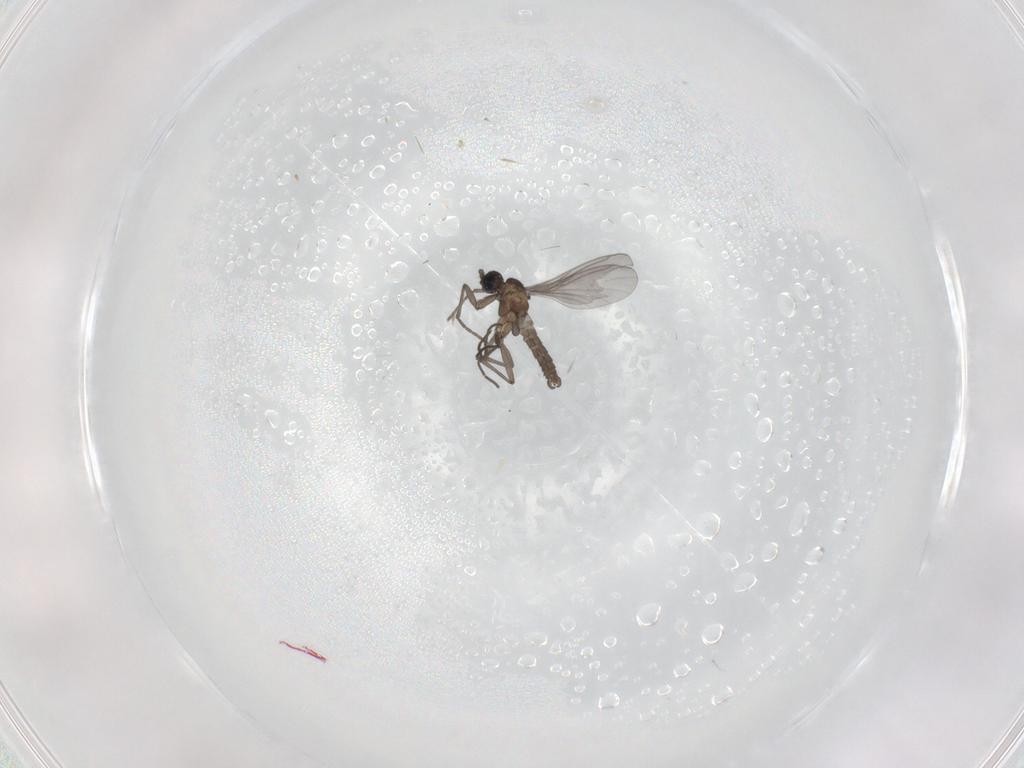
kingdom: Animalia
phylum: Arthropoda
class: Insecta
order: Diptera
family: Sciaridae
